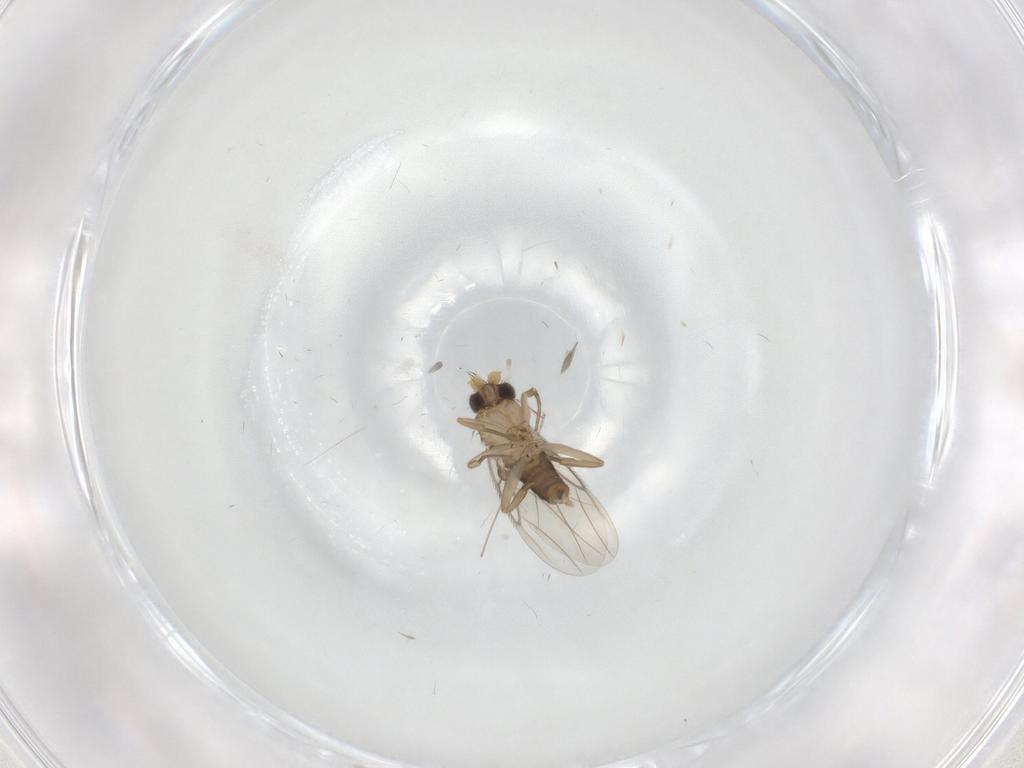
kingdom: Animalia
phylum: Arthropoda
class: Insecta
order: Diptera
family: Phoridae
